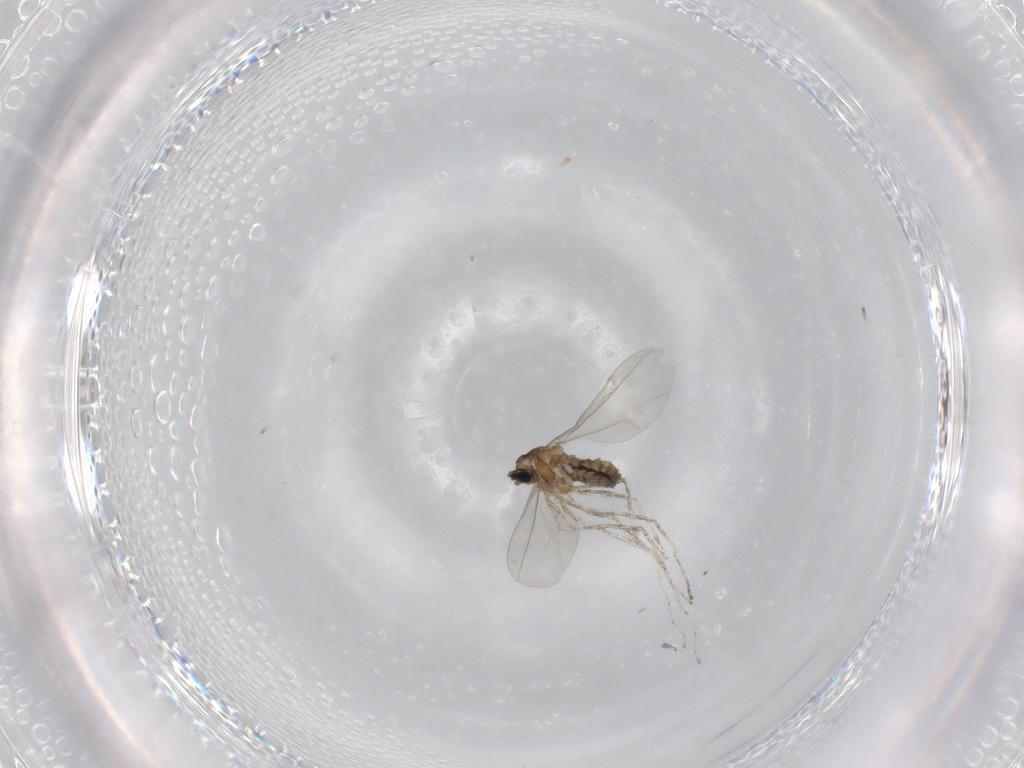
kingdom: Animalia
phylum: Arthropoda
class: Insecta
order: Diptera
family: Cecidomyiidae
